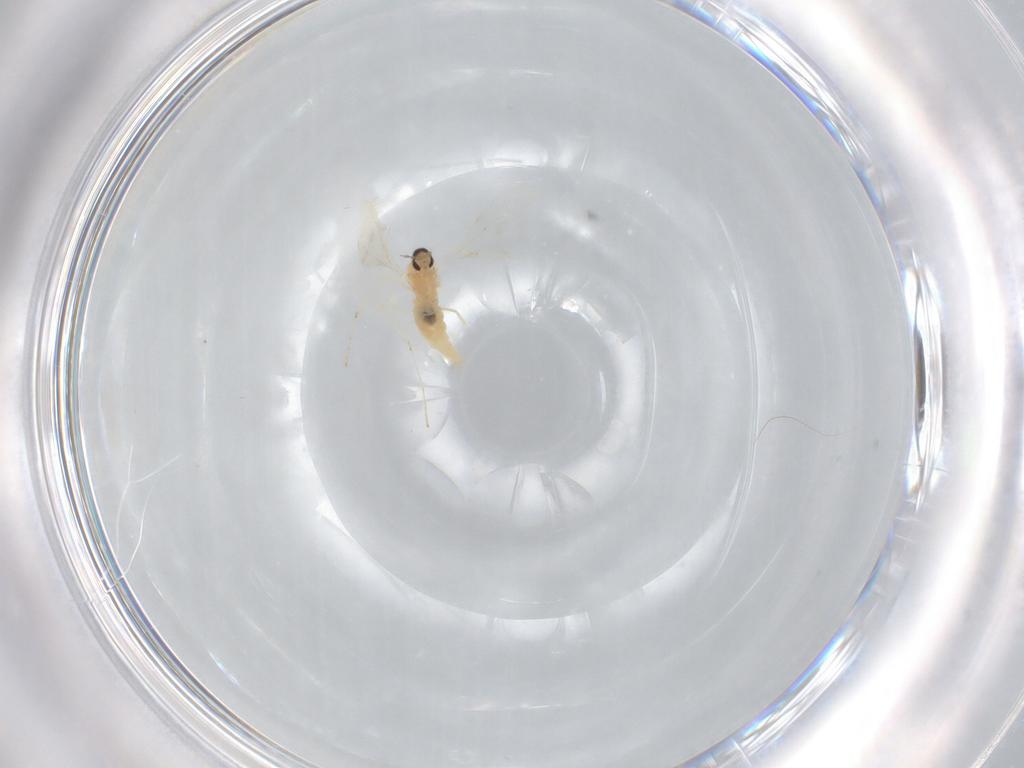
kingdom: Animalia
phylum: Arthropoda
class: Insecta
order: Diptera
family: Cecidomyiidae
